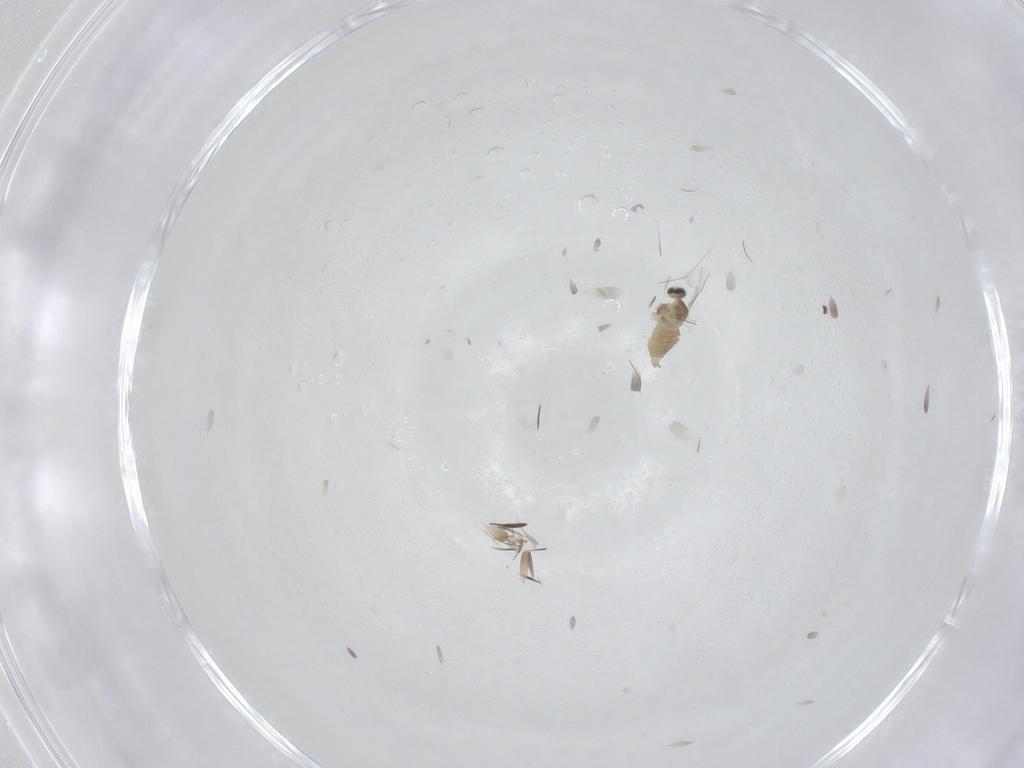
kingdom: Animalia
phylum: Arthropoda
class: Insecta
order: Diptera
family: Cecidomyiidae
